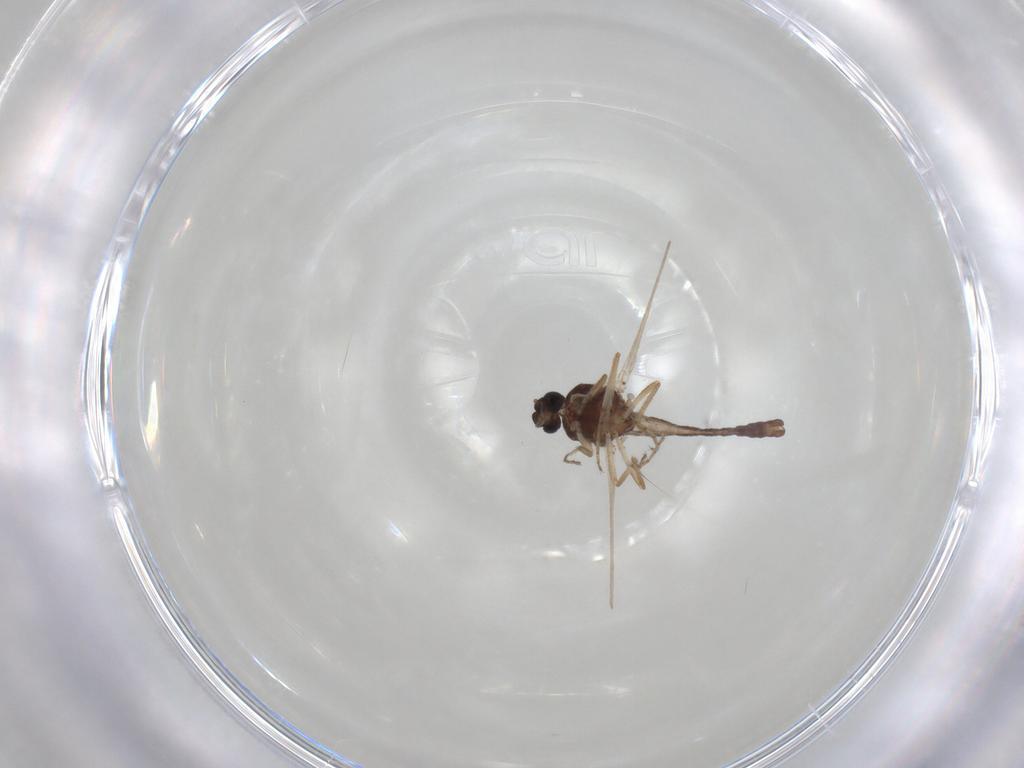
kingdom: Animalia
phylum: Arthropoda
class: Insecta
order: Diptera
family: Ceratopogonidae
